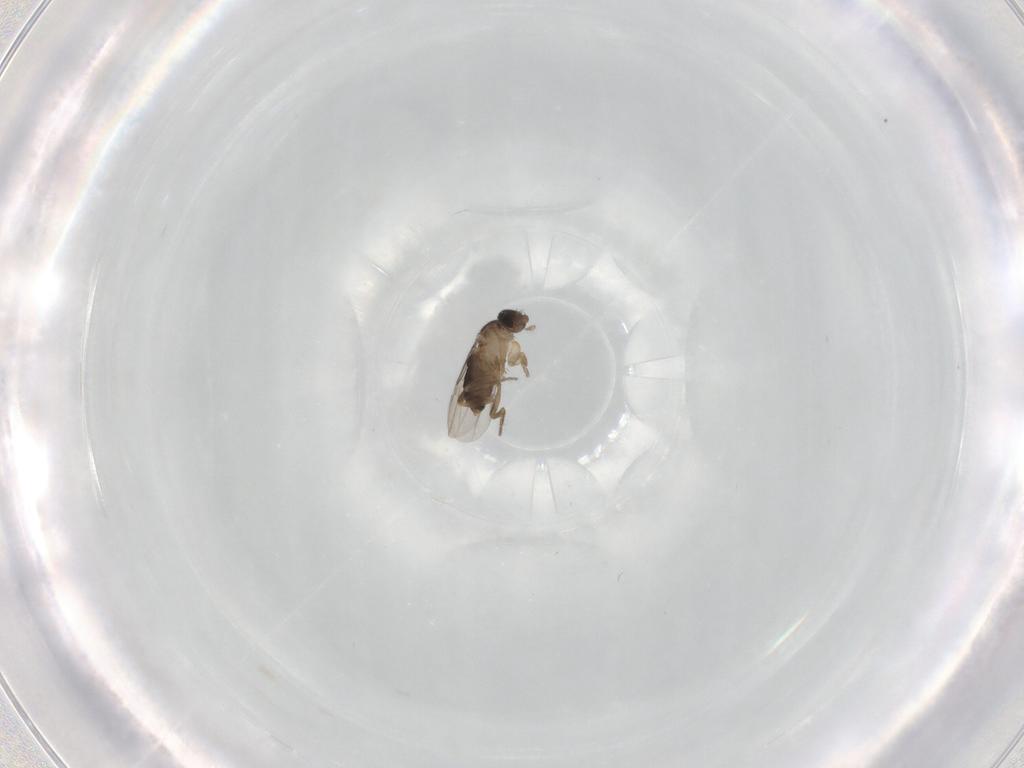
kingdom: Animalia
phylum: Arthropoda
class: Insecta
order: Diptera
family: Phoridae
